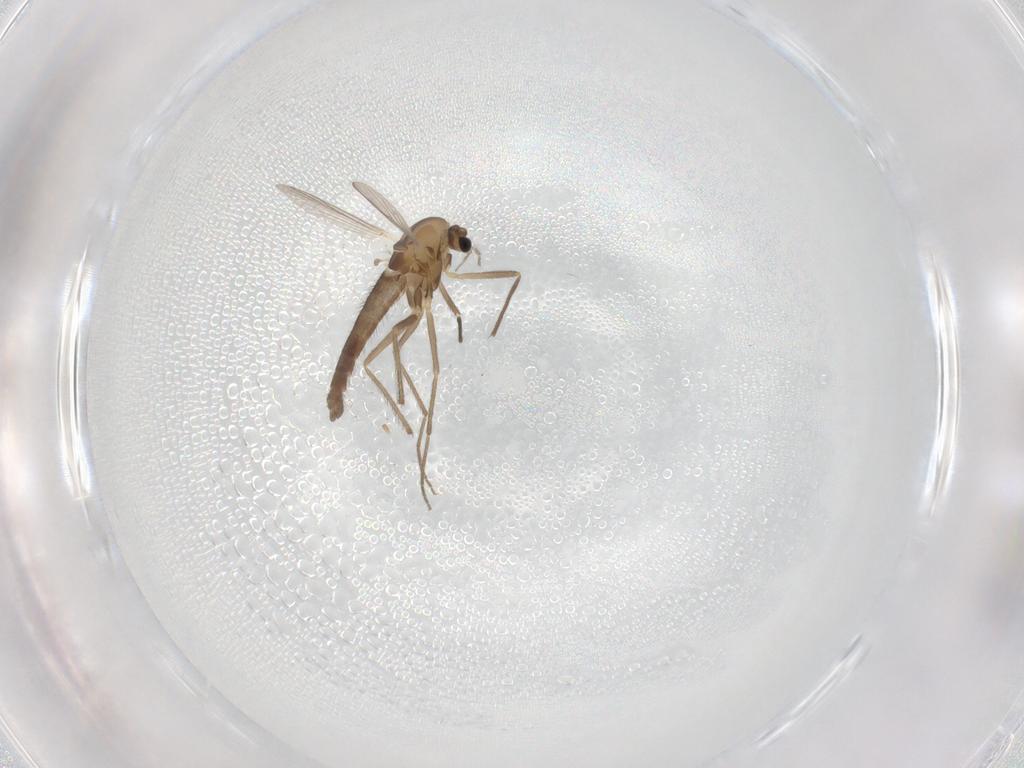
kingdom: Animalia
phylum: Arthropoda
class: Insecta
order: Diptera
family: Chironomidae
